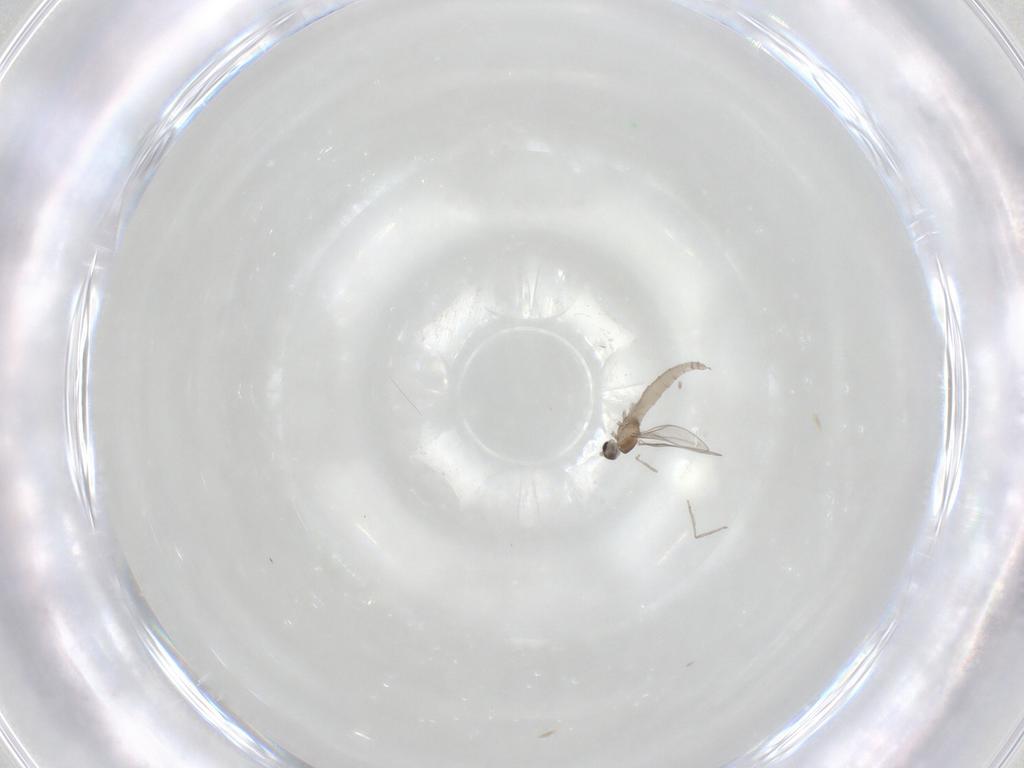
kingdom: Animalia
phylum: Arthropoda
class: Insecta
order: Diptera
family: Cecidomyiidae
